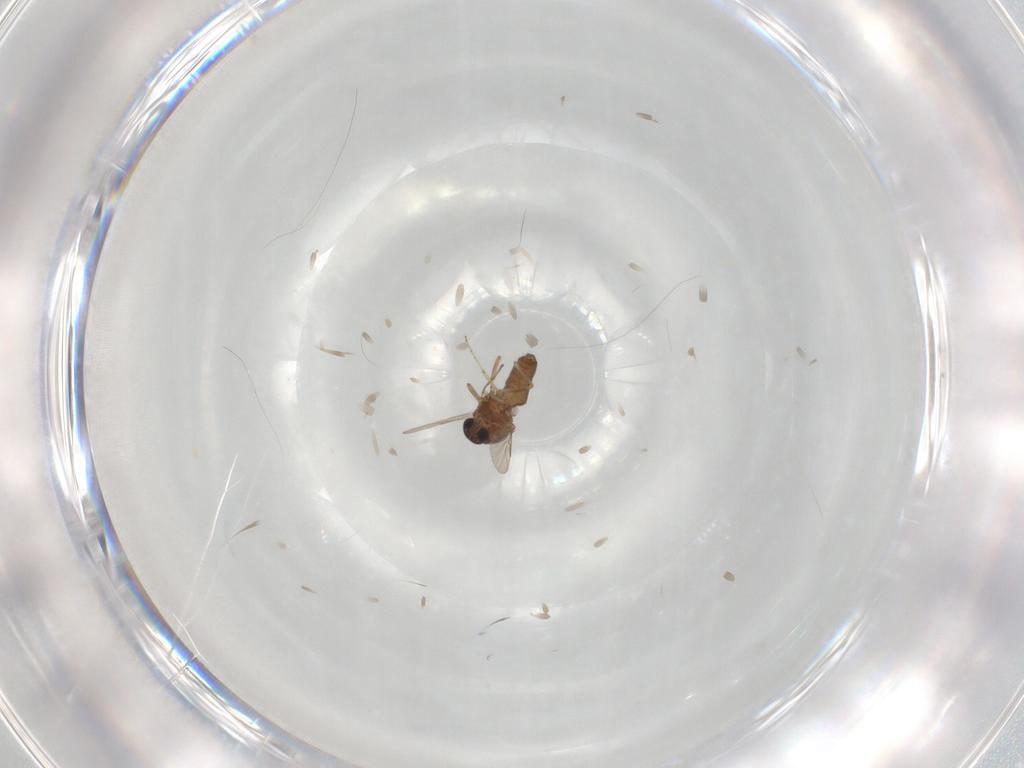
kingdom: Animalia
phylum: Arthropoda
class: Insecta
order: Diptera
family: Ceratopogonidae
